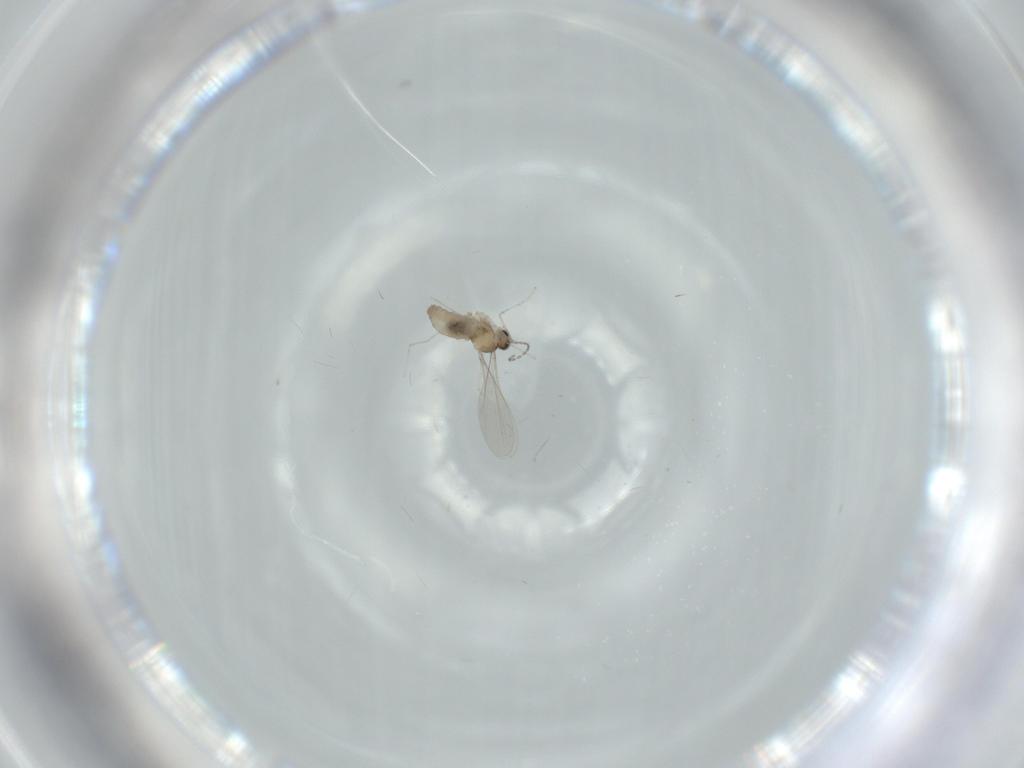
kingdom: Animalia
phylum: Arthropoda
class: Insecta
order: Diptera
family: Cecidomyiidae
